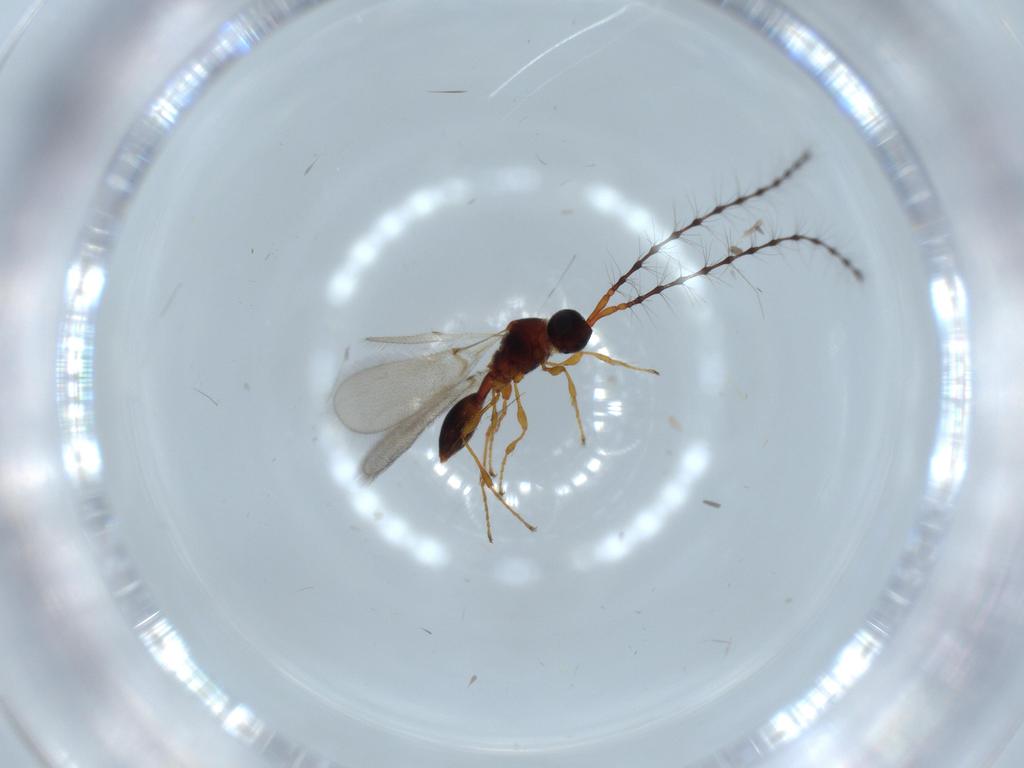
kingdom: Animalia
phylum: Arthropoda
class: Insecta
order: Hymenoptera
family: Diapriidae
